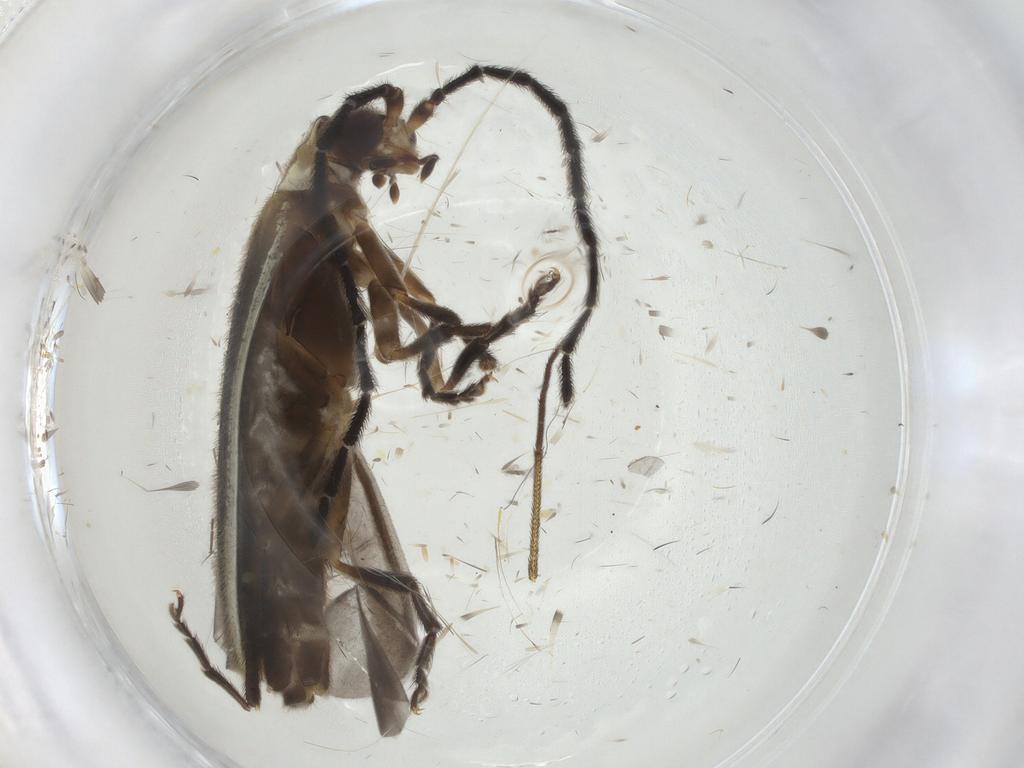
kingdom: Animalia
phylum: Arthropoda
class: Insecta
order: Coleoptera
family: Cantharidae
